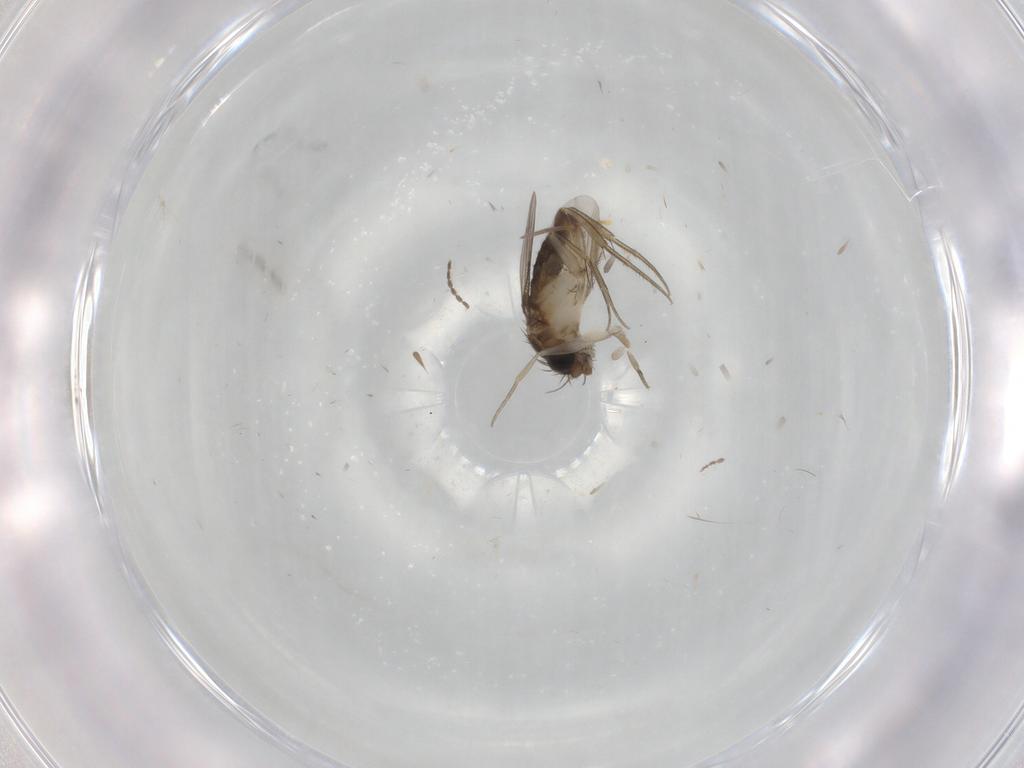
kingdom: Animalia
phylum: Arthropoda
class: Insecta
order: Diptera
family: Phoridae
